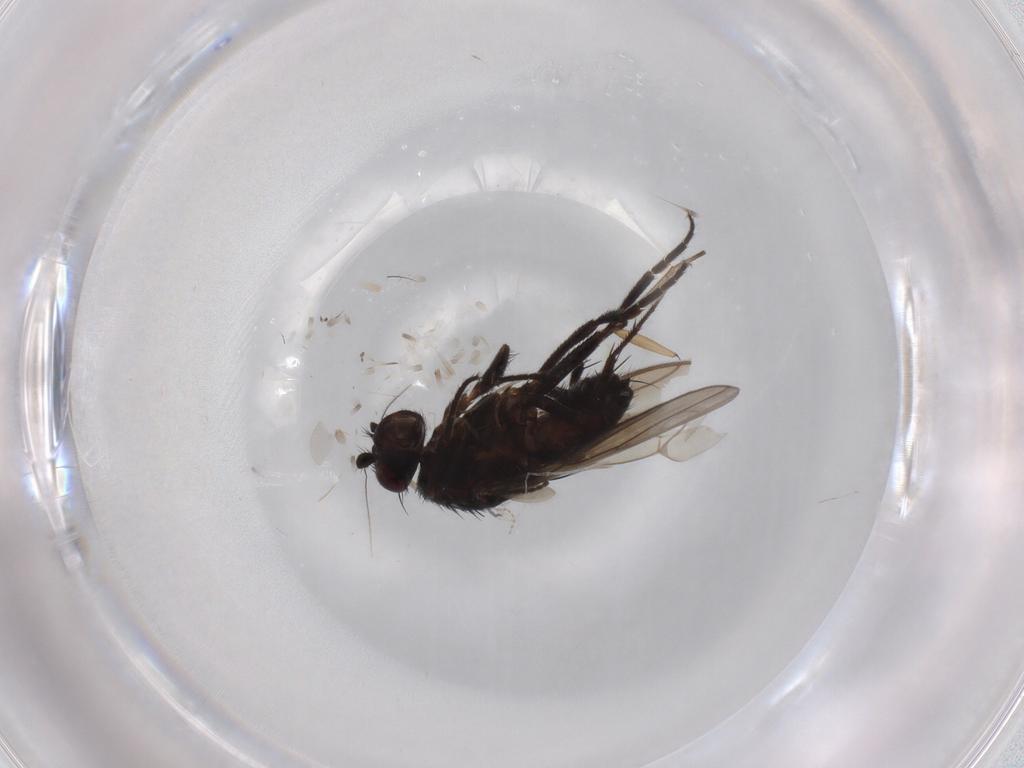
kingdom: Animalia
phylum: Arthropoda
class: Insecta
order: Diptera
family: Sphaeroceridae
